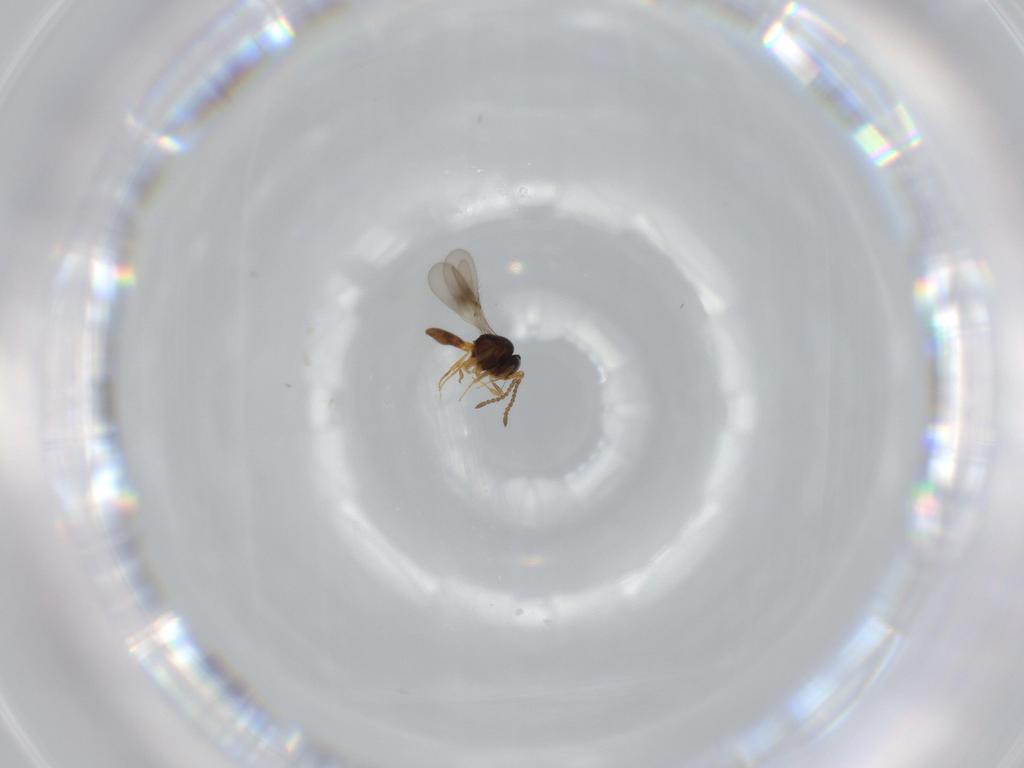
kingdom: Animalia
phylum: Arthropoda
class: Insecta
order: Hymenoptera
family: Scelionidae
